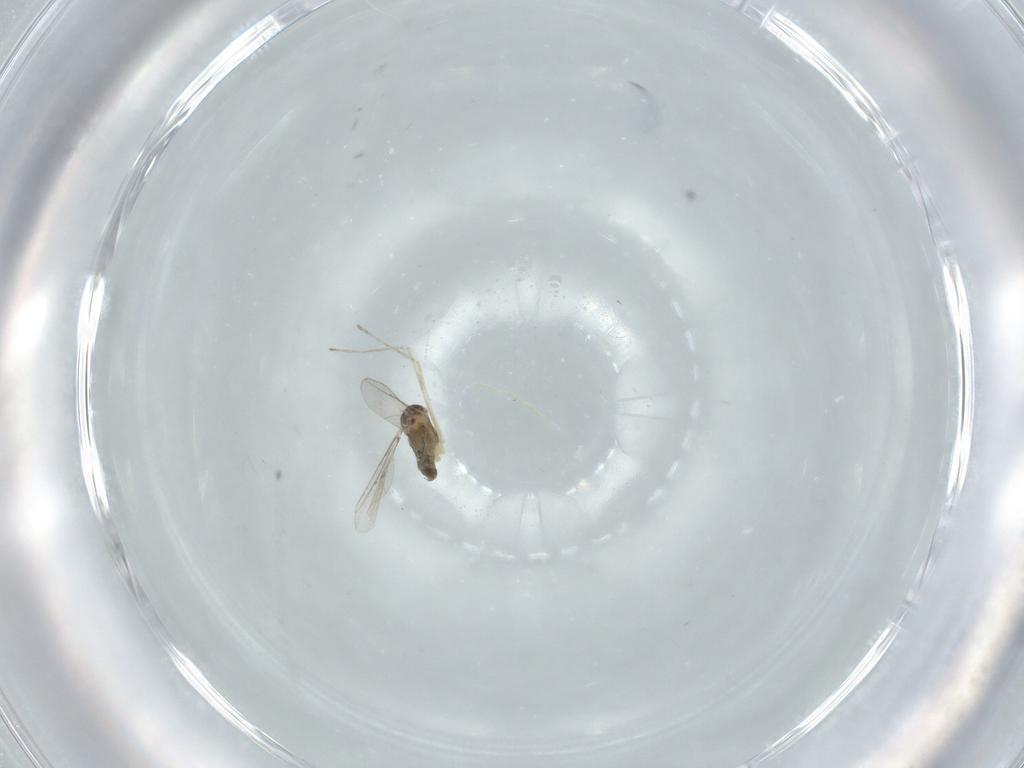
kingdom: Animalia
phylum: Arthropoda
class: Insecta
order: Diptera
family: Cecidomyiidae
